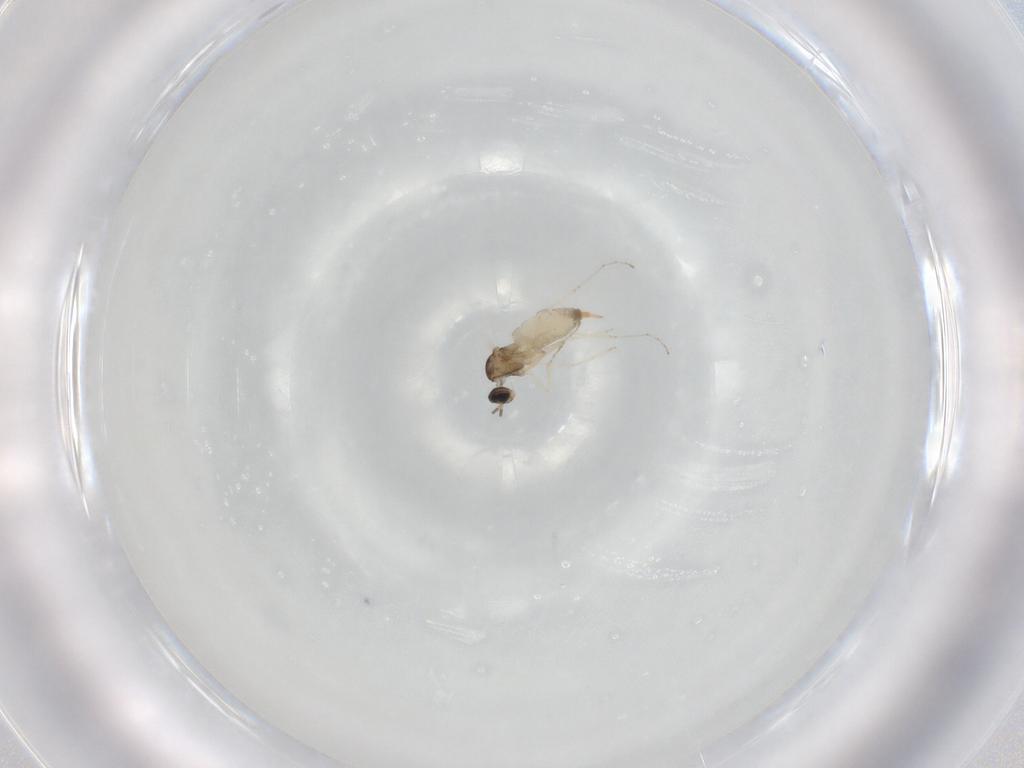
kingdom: Animalia
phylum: Arthropoda
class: Insecta
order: Diptera
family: Cecidomyiidae
